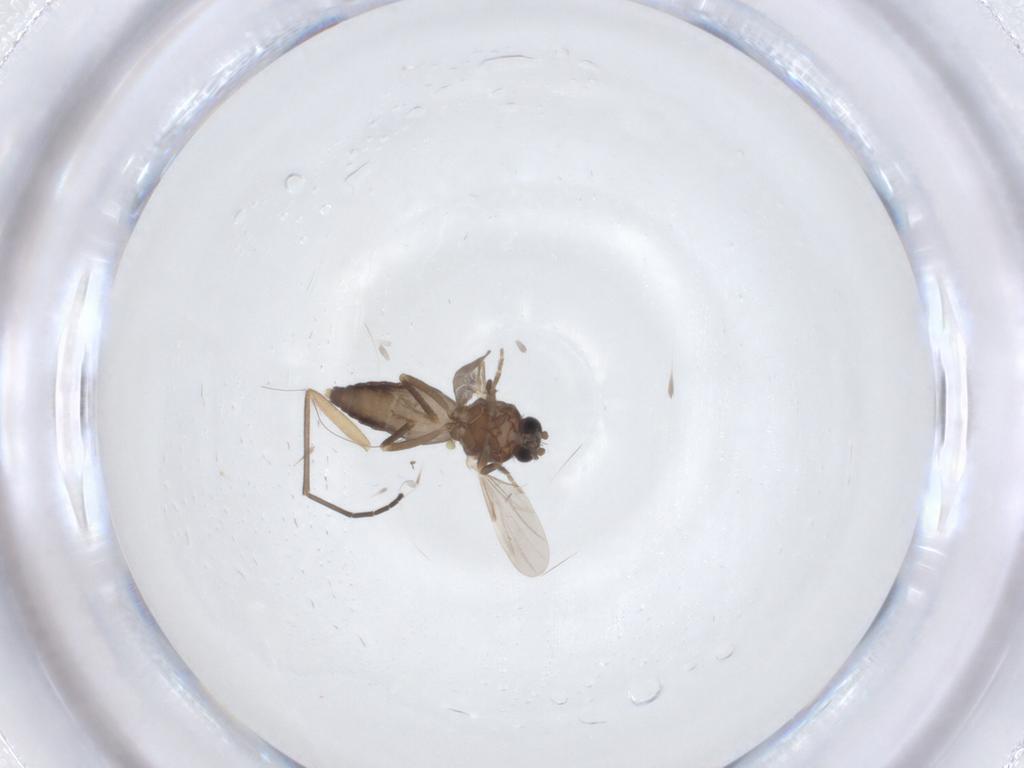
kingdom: Animalia
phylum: Arthropoda
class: Insecta
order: Diptera
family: Ceratopogonidae
